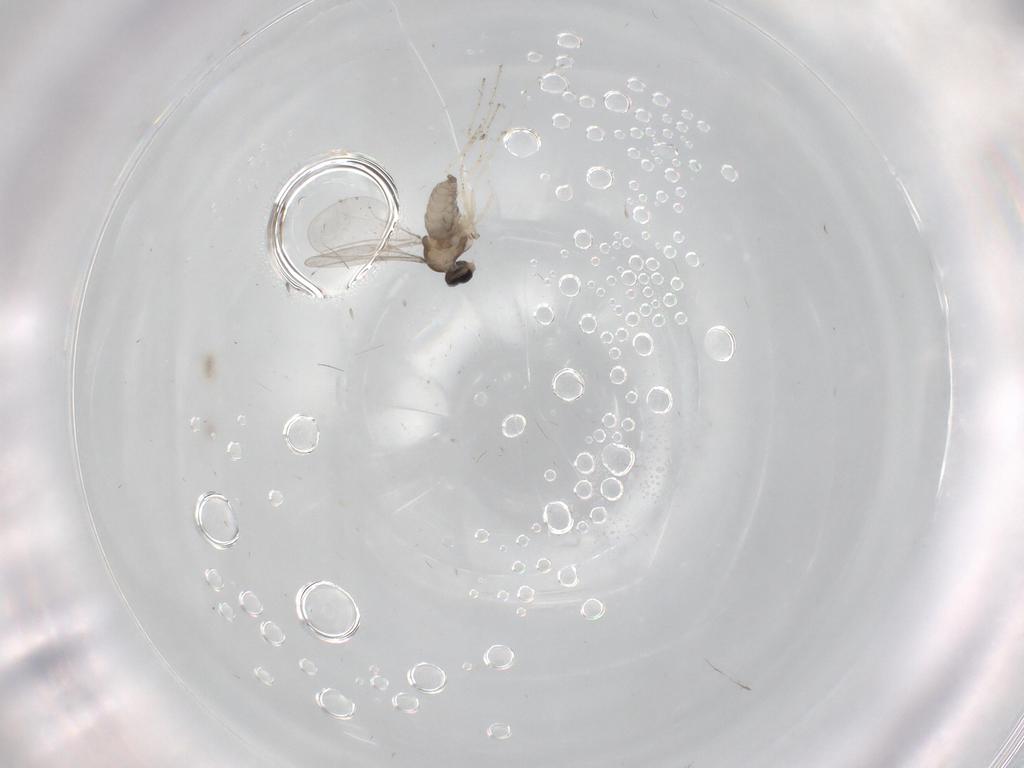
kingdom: Animalia
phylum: Arthropoda
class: Insecta
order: Diptera
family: Cecidomyiidae
